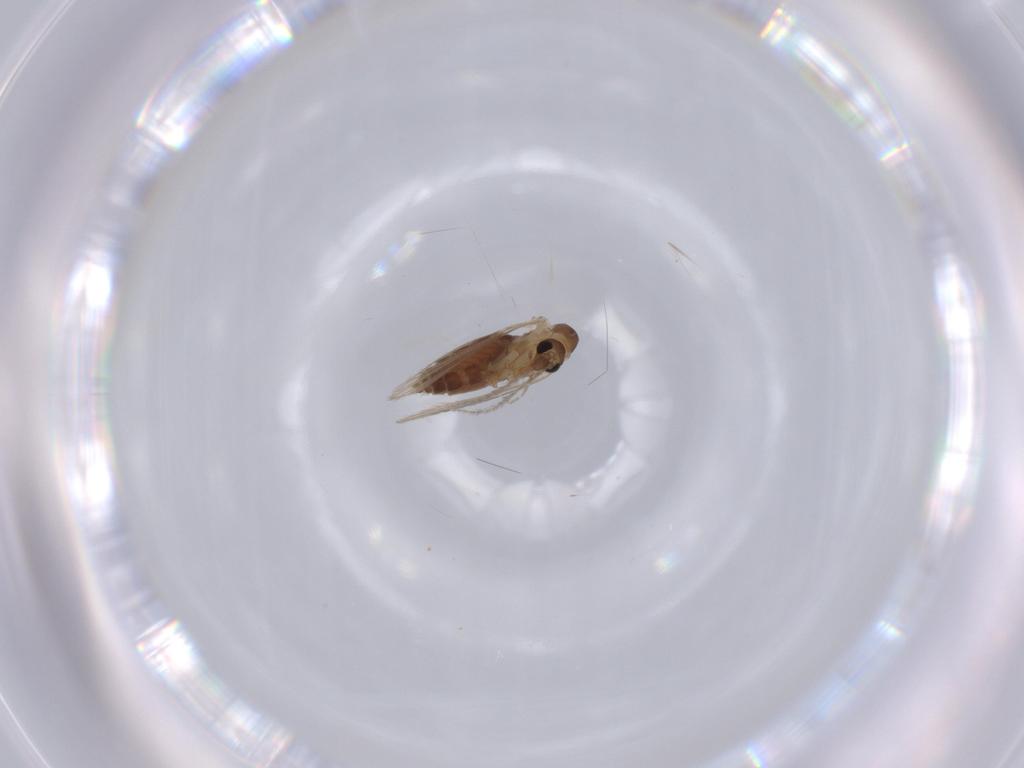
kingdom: Animalia
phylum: Arthropoda
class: Insecta
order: Diptera
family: Psychodidae
